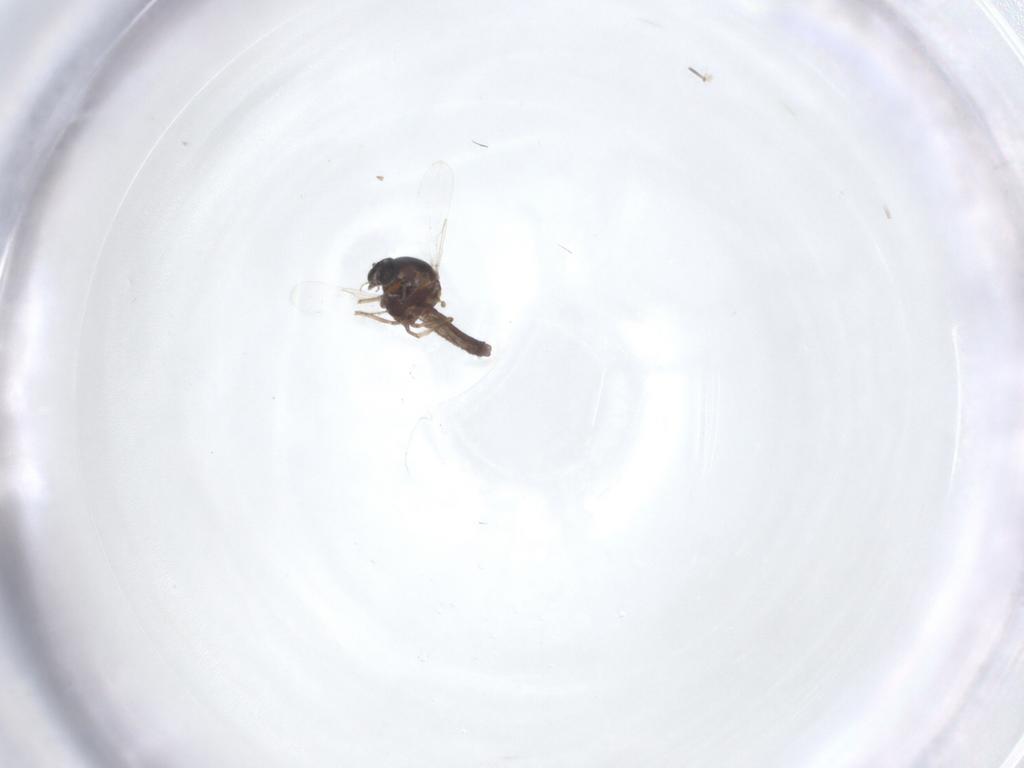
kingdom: Animalia
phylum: Arthropoda
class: Insecta
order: Diptera
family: Ceratopogonidae
